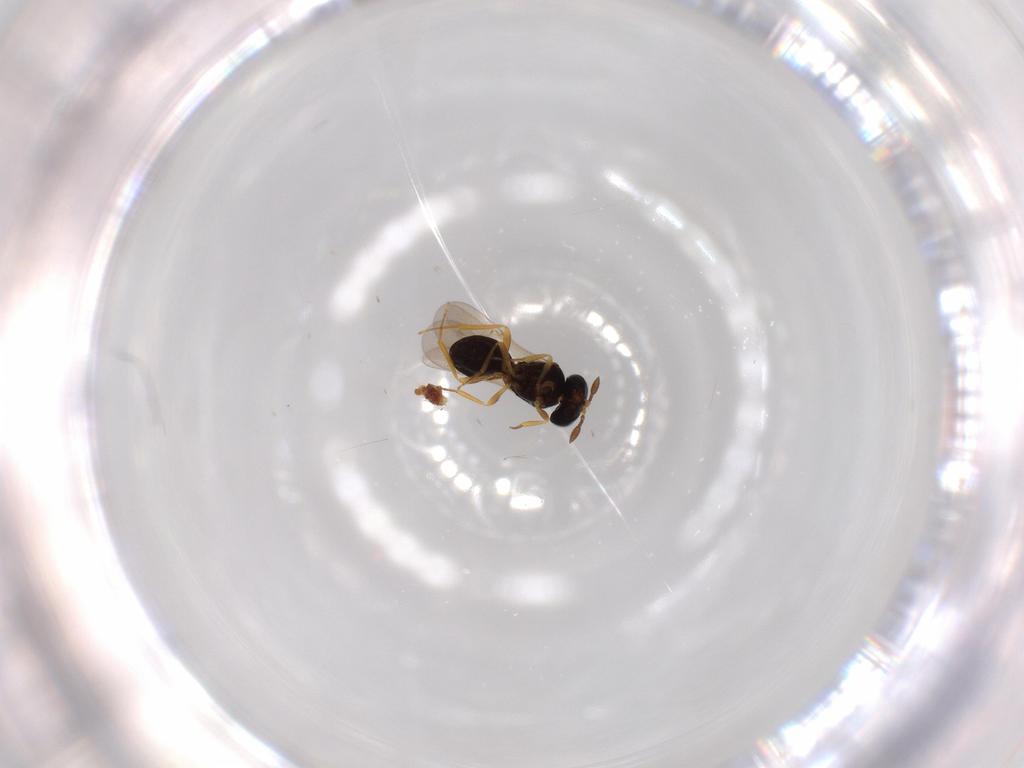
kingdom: Animalia
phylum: Arthropoda
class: Insecta
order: Hymenoptera
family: Scelionidae
